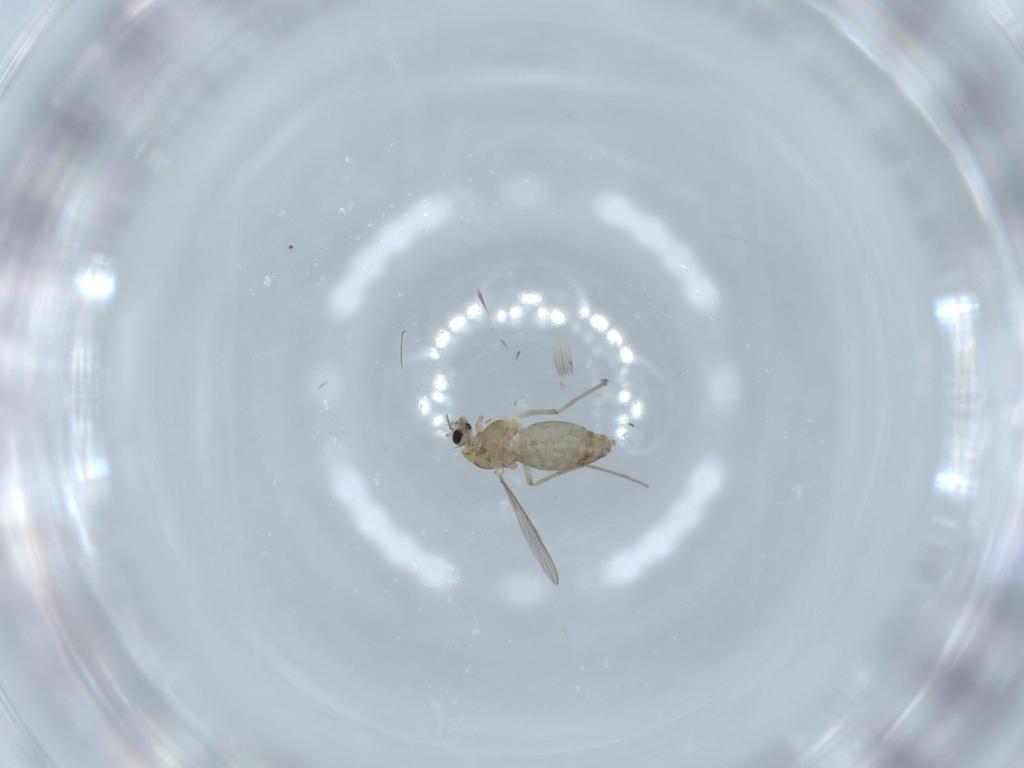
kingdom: Animalia
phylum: Arthropoda
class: Insecta
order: Diptera
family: Chironomidae
